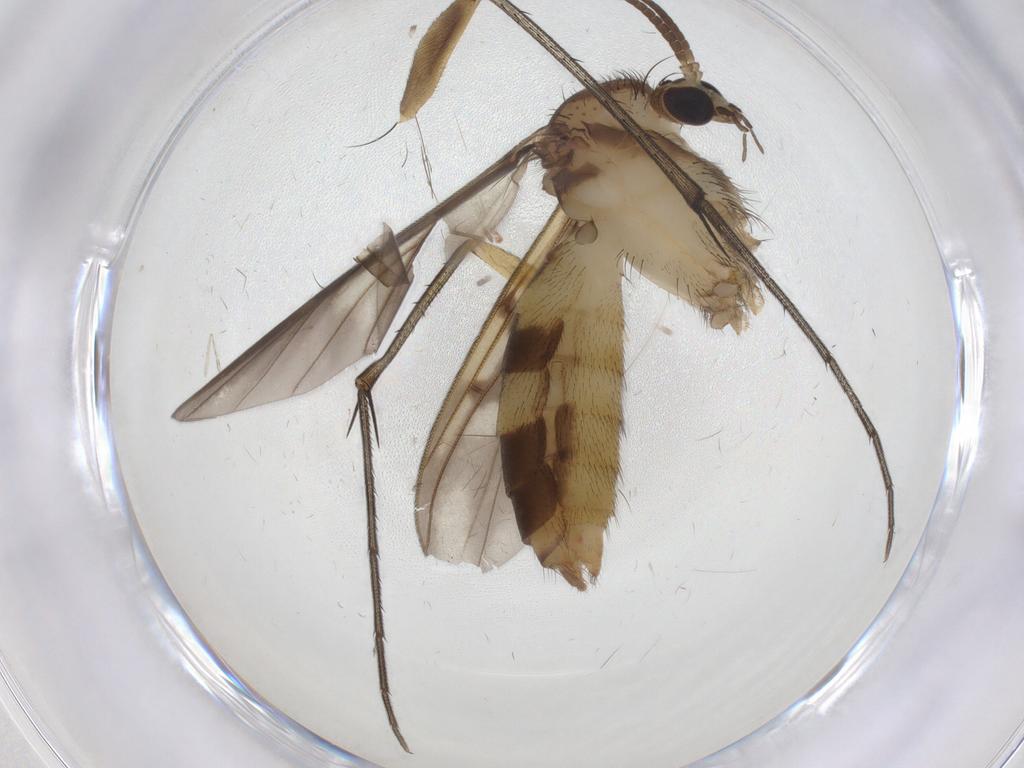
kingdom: Animalia
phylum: Arthropoda
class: Insecta
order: Diptera
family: Mycetophilidae
